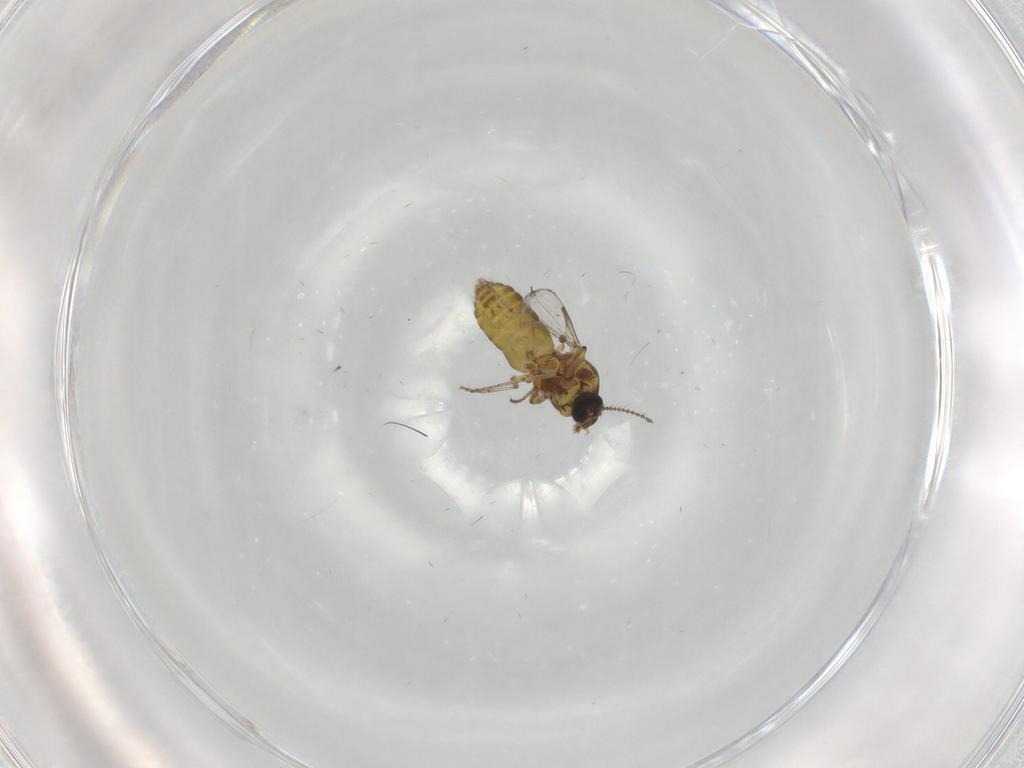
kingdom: Animalia
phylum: Arthropoda
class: Insecta
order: Diptera
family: Ceratopogonidae
